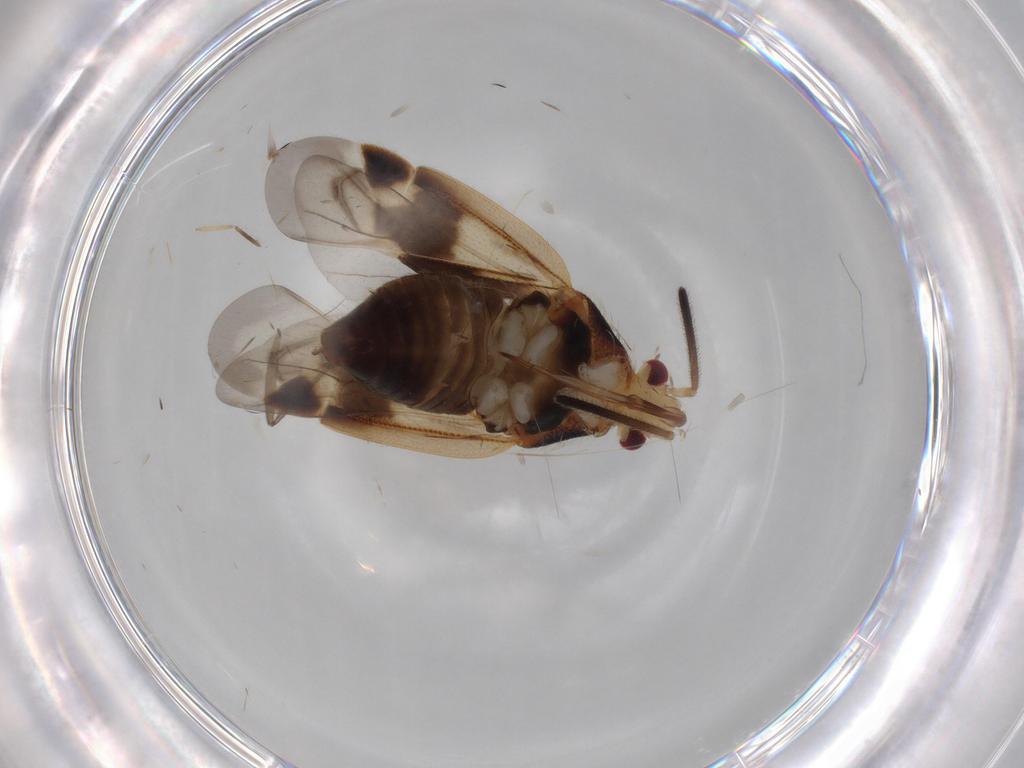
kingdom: Animalia
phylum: Arthropoda
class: Insecta
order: Hemiptera
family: Miridae
